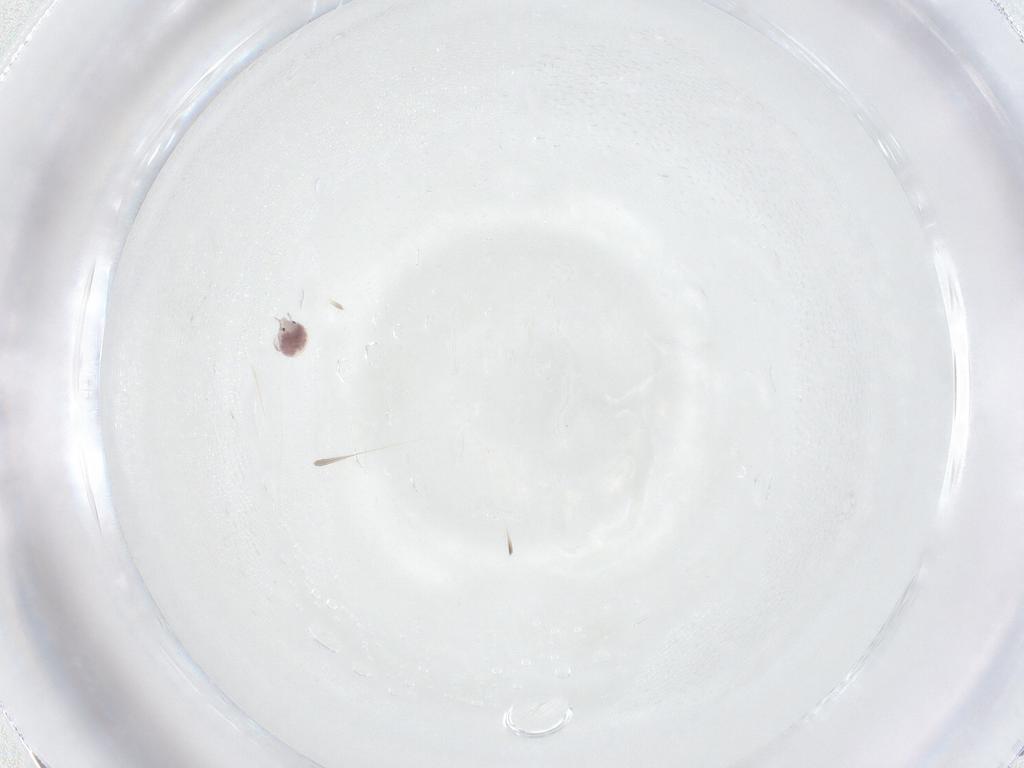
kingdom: Animalia
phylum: Arthropoda
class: Arachnida
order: Trombidiformes
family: Pionidae
